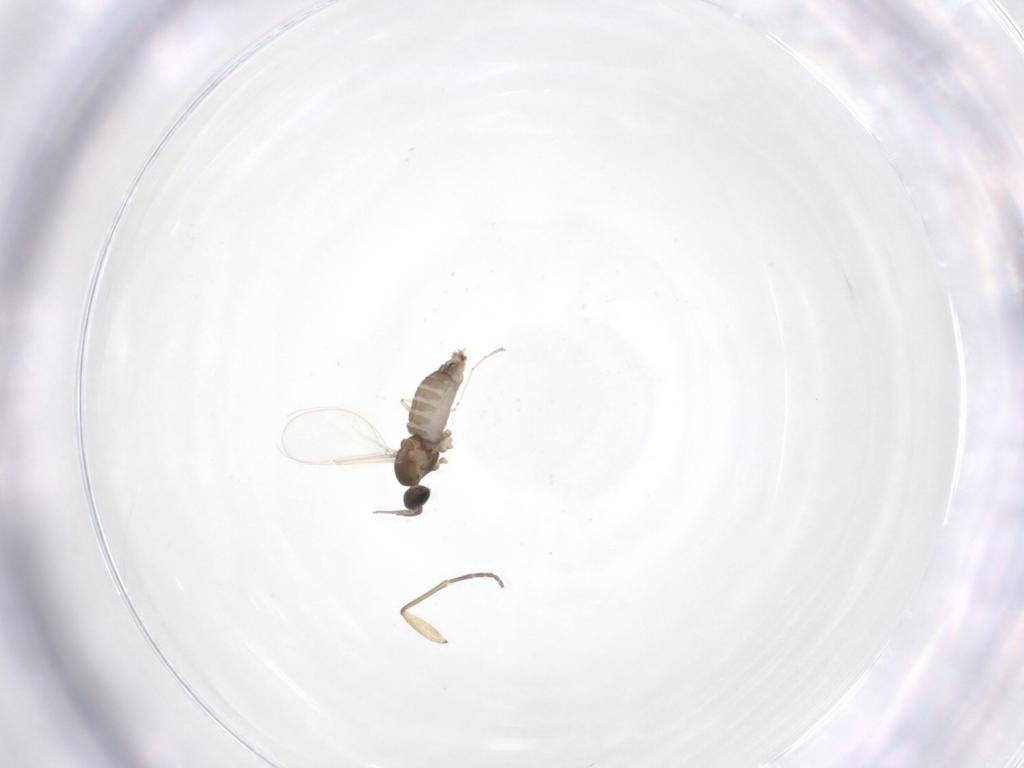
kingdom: Animalia
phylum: Arthropoda
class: Insecta
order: Diptera
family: Cecidomyiidae
